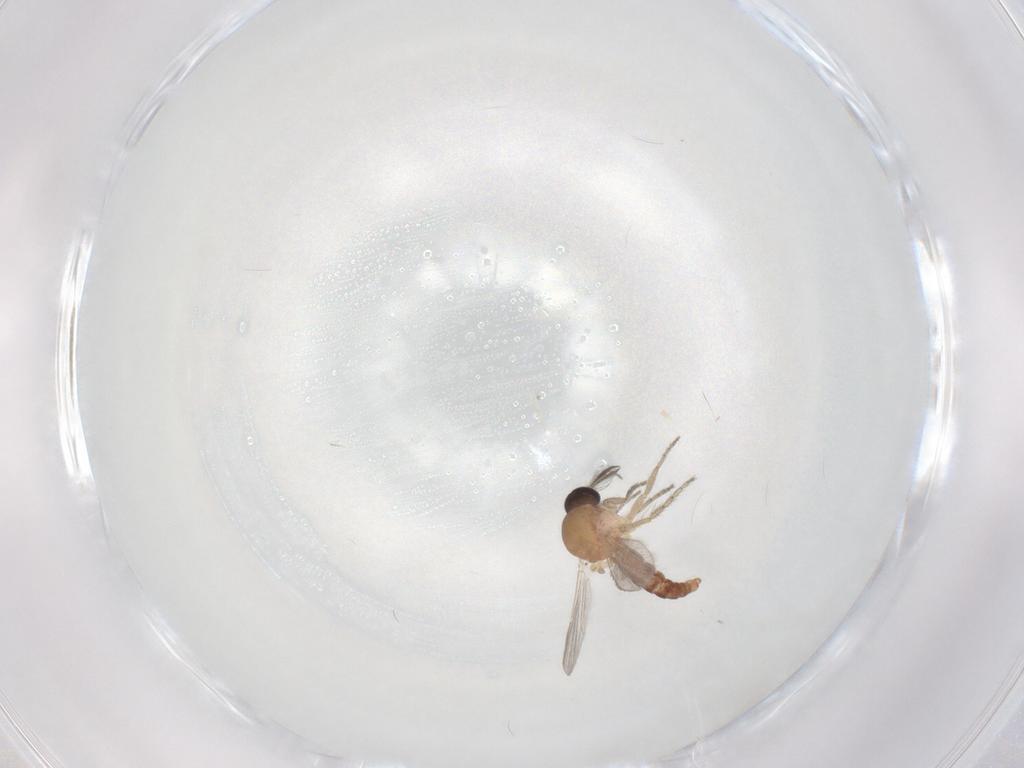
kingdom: Animalia
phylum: Arthropoda
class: Insecta
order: Diptera
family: Ceratopogonidae
